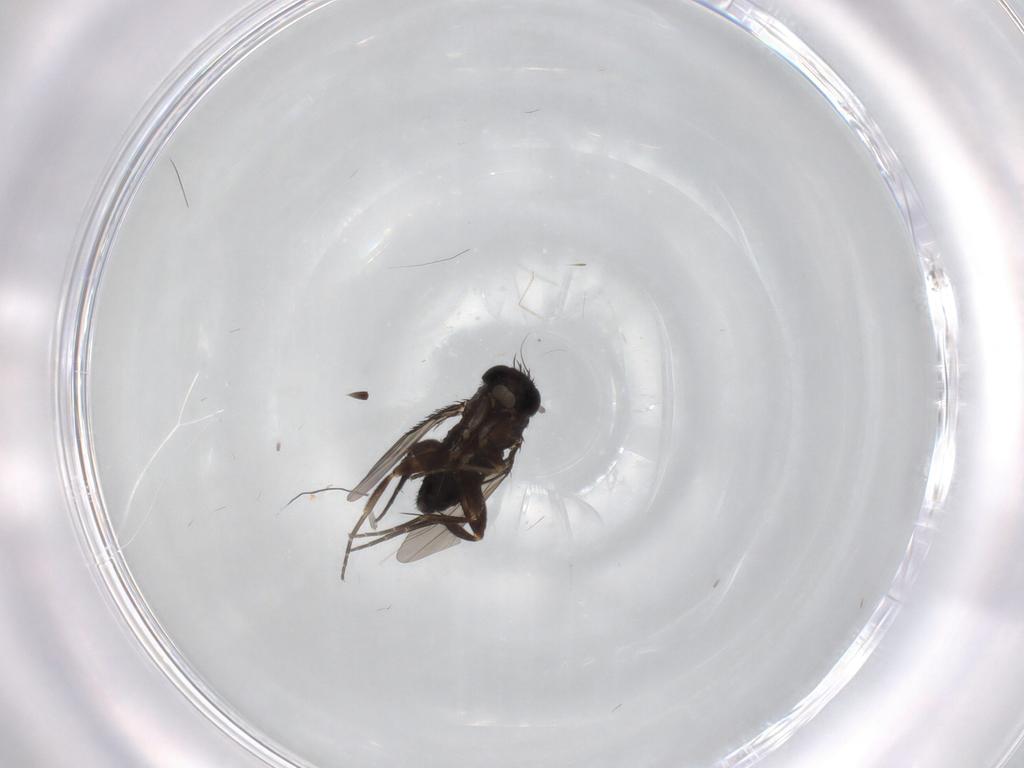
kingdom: Animalia
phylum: Arthropoda
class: Insecta
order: Diptera
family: Phoridae
